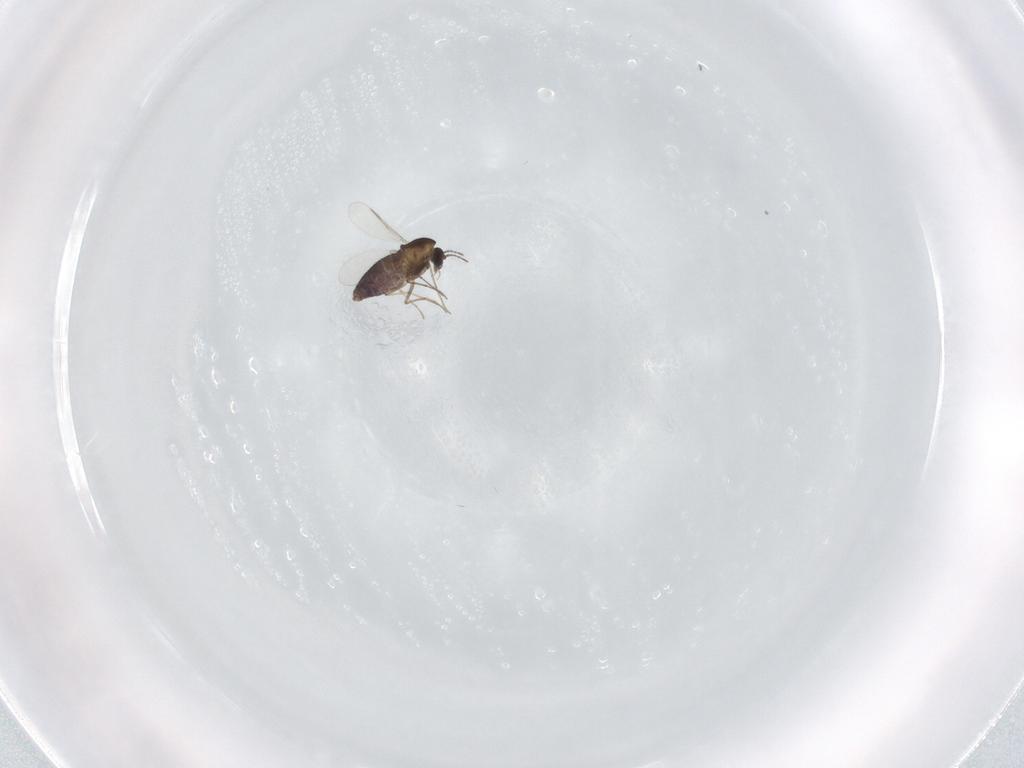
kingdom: Animalia
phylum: Arthropoda
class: Insecta
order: Diptera
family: Chironomidae
